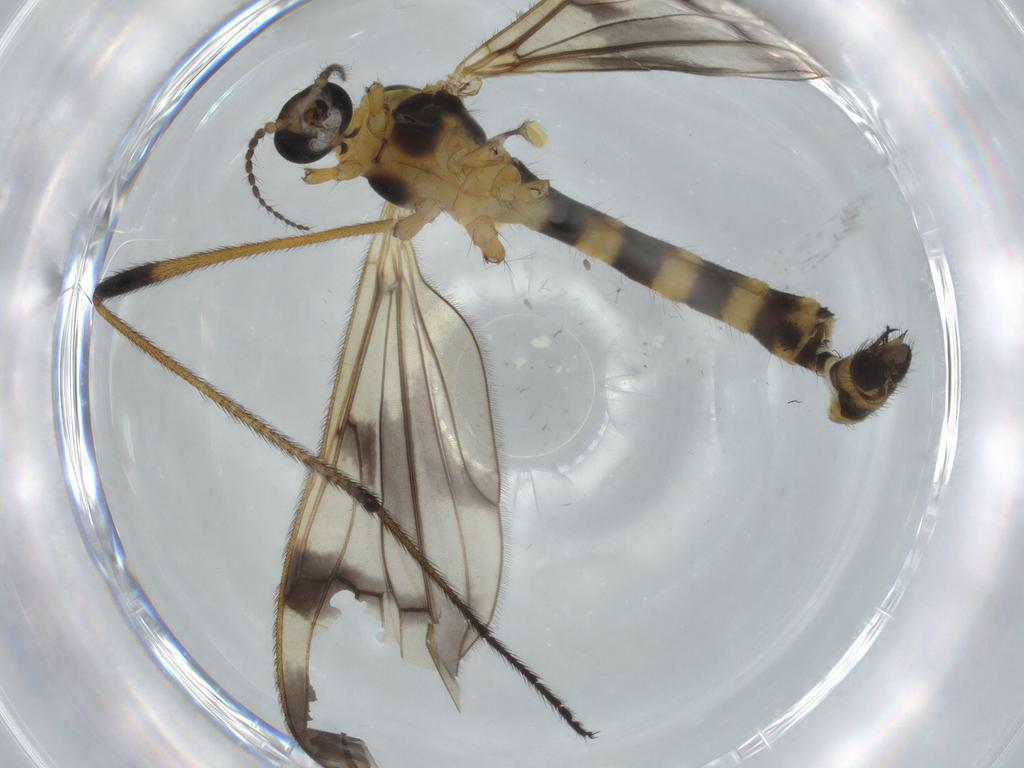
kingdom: Animalia
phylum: Arthropoda
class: Insecta
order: Diptera
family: Limoniidae
